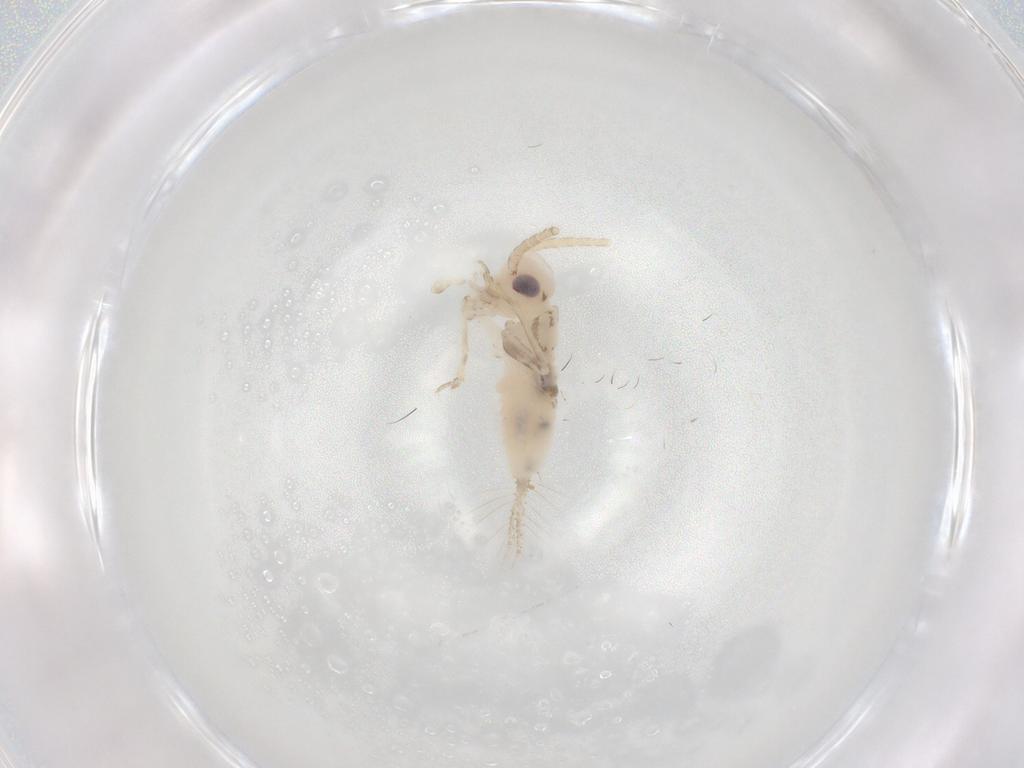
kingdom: Animalia
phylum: Arthropoda
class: Insecta
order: Orthoptera
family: Trigonidiidae
